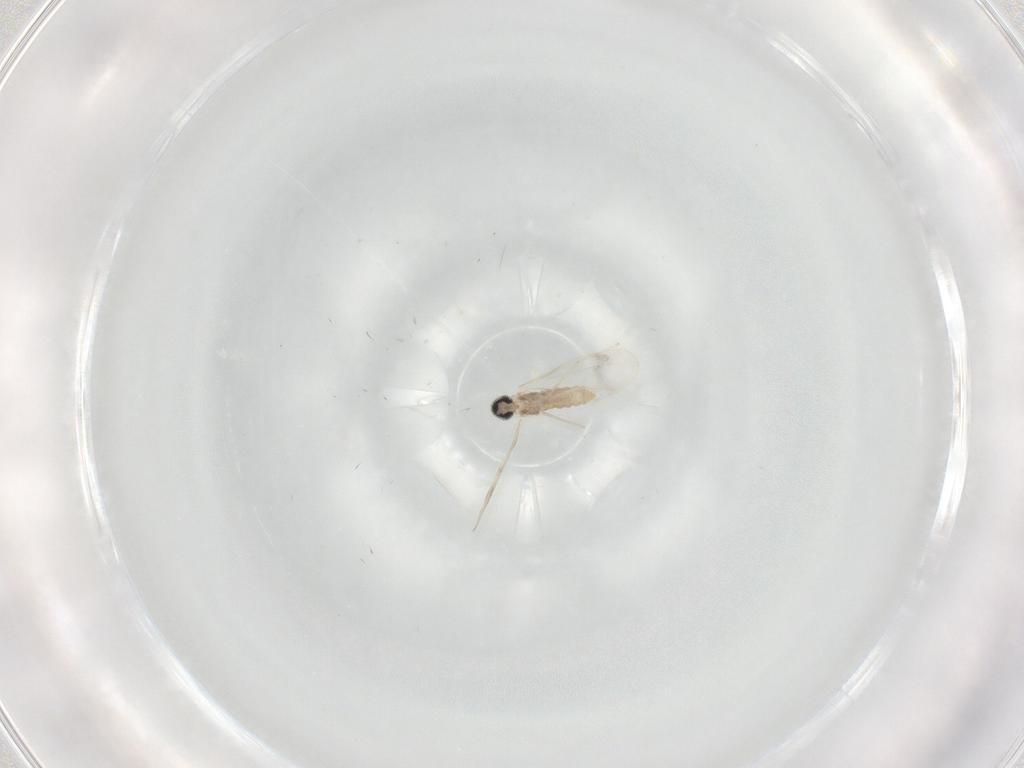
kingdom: Animalia
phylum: Arthropoda
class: Insecta
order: Diptera
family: Cecidomyiidae
